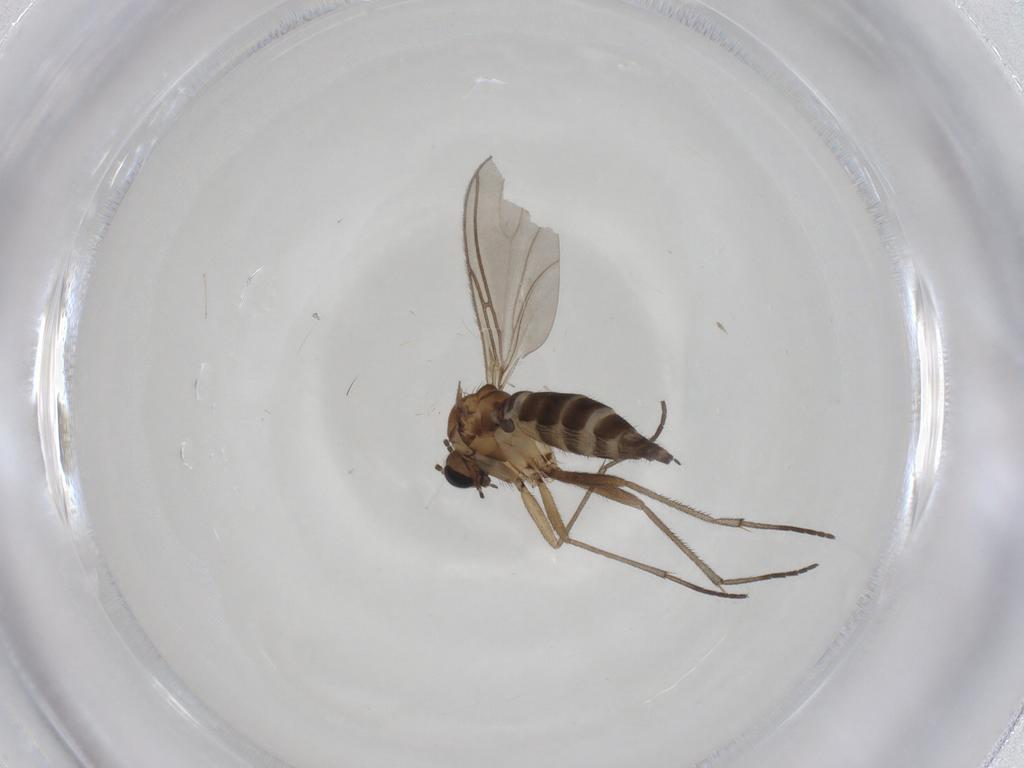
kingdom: Animalia
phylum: Arthropoda
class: Insecta
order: Diptera
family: Sciaridae
